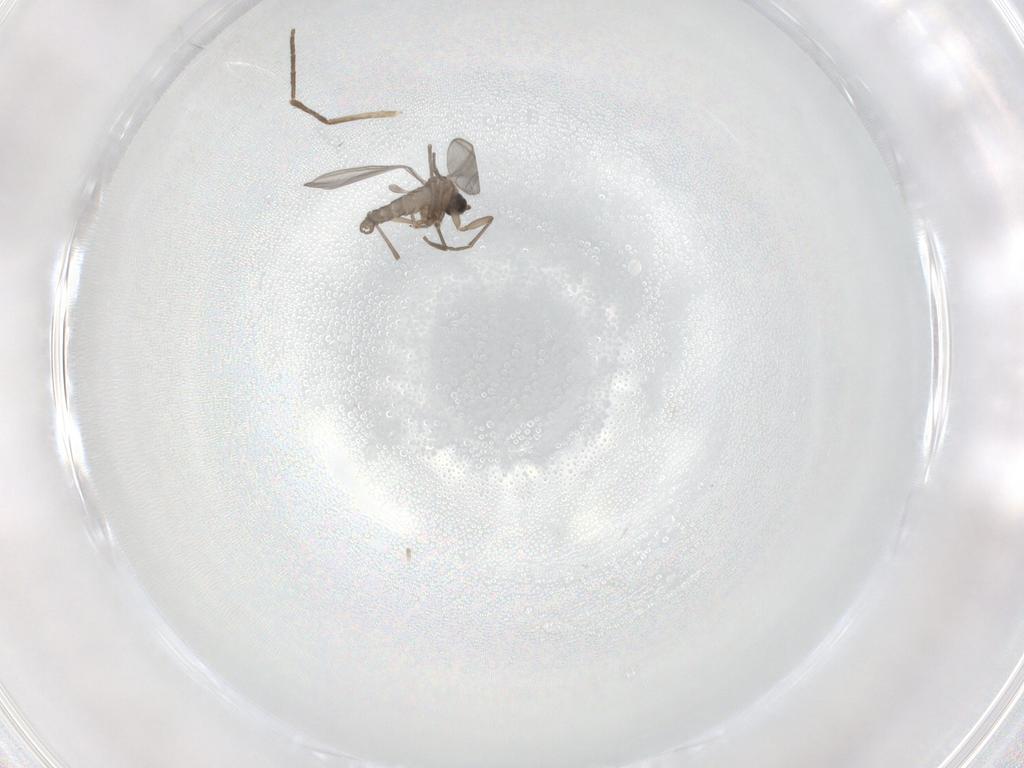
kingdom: Animalia
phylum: Arthropoda
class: Insecta
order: Diptera
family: Sciaridae
